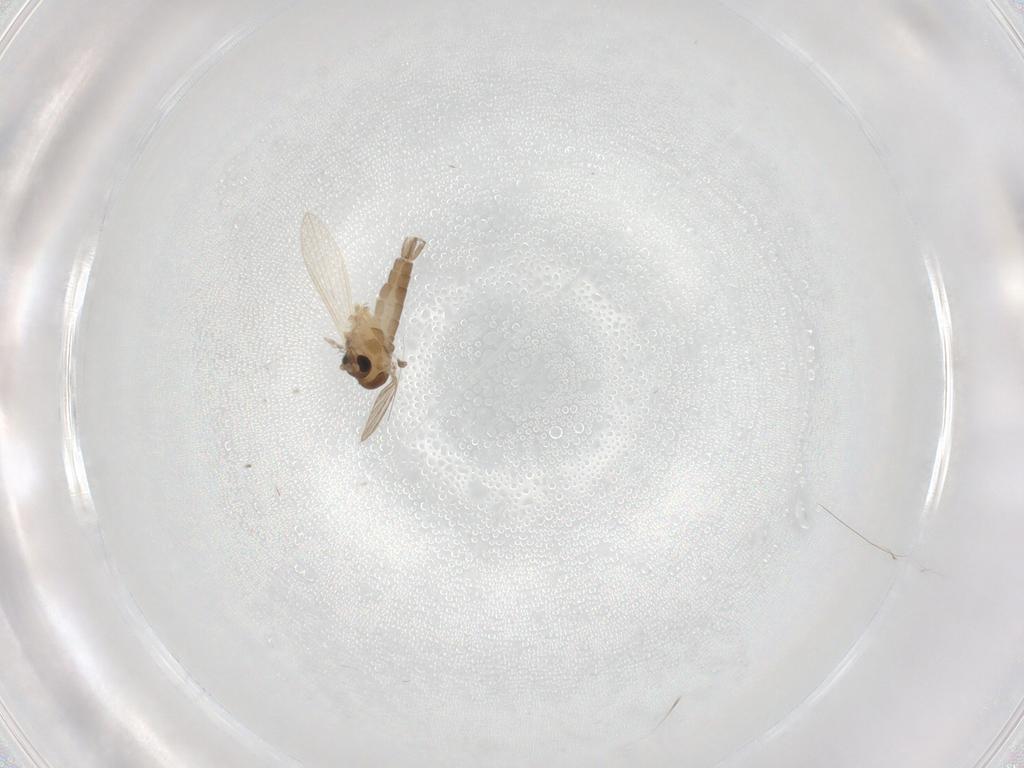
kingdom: Animalia
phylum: Arthropoda
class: Insecta
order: Diptera
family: Psychodidae
